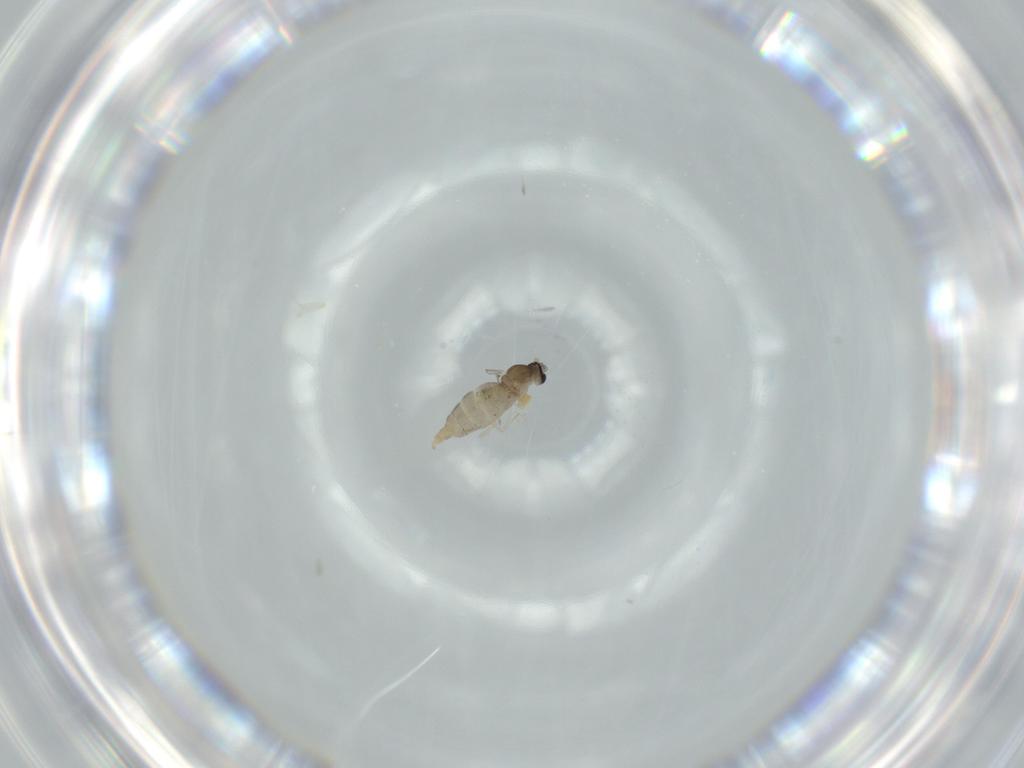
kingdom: Animalia
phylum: Arthropoda
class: Insecta
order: Diptera
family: Cecidomyiidae
